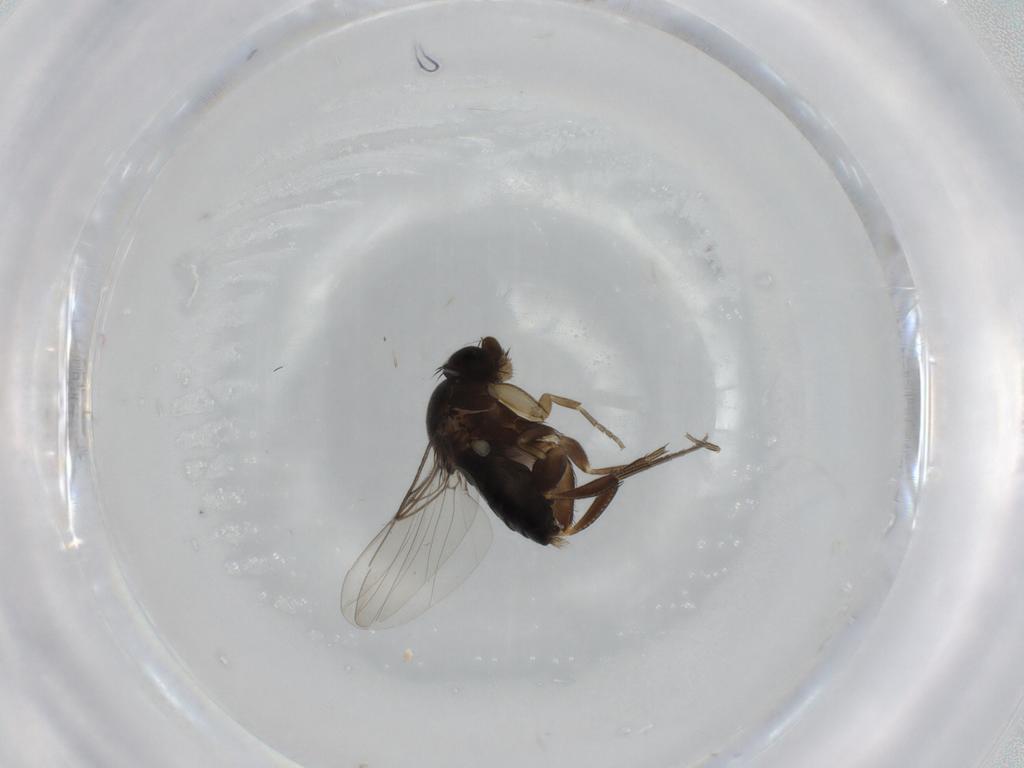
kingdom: Animalia
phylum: Arthropoda
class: Insecta
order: Diptera
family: Phoridae
